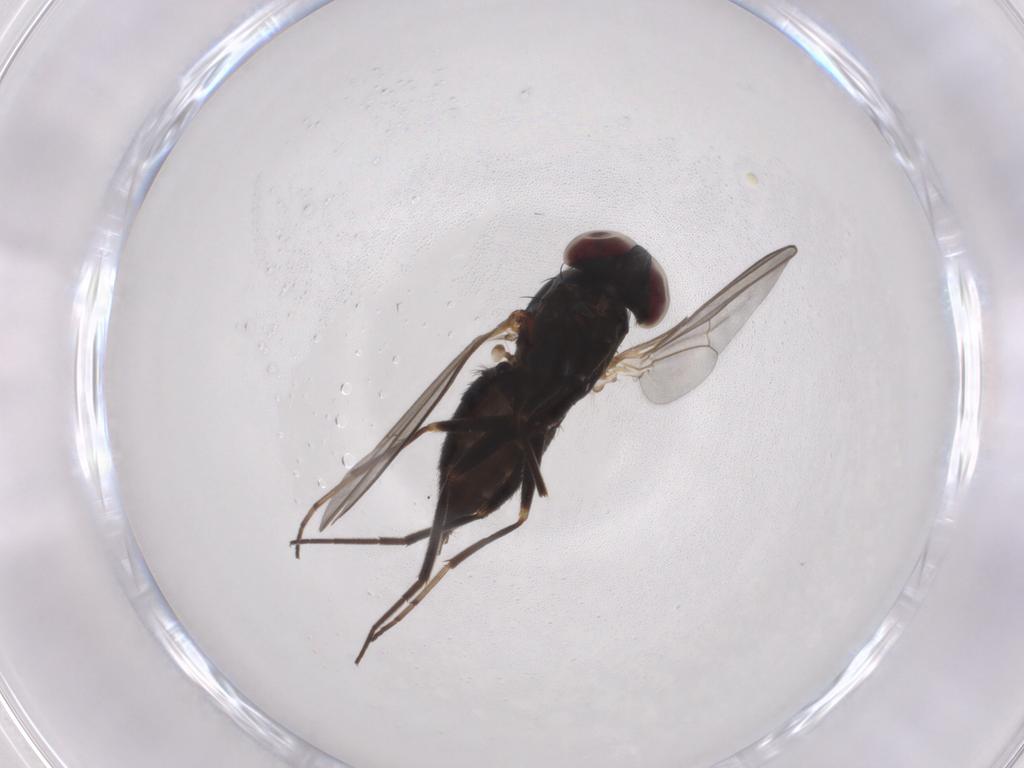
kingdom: Animalia
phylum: Arthropoda
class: Insecta
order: Diptera
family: Dolichopodidae
